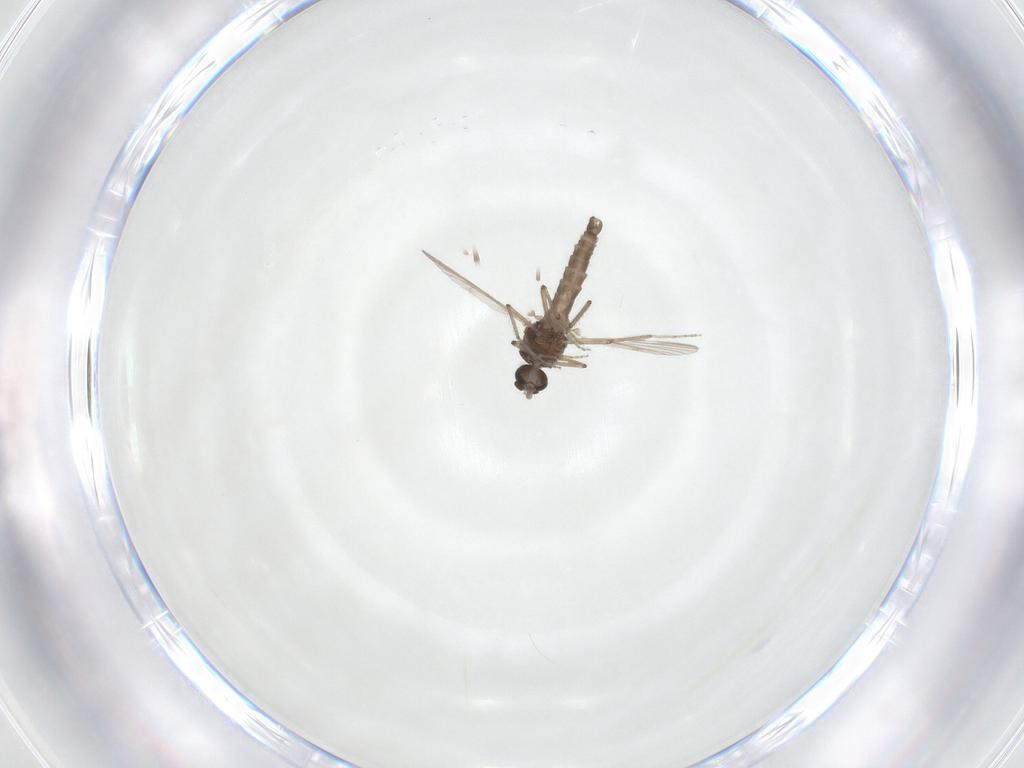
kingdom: Animalia
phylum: Arthropoda
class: Insecta
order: Diptera
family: Ceratopogonidae
